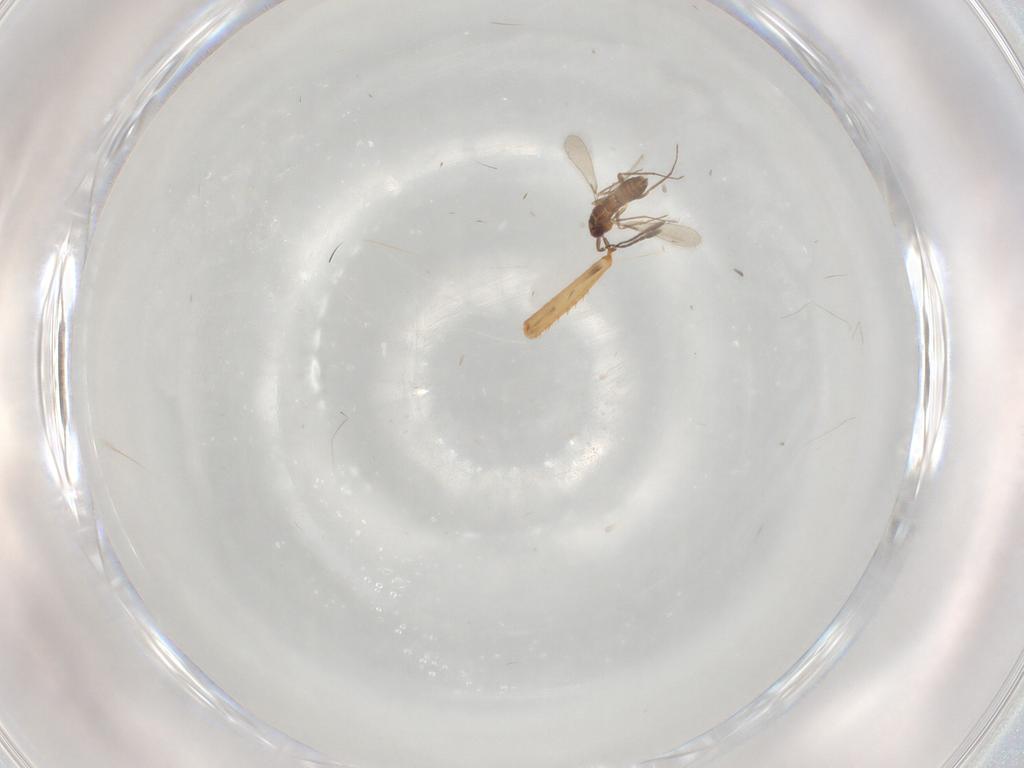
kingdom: Animalia
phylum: Arthropoda
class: Insecta
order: Hymenoptera
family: Mymaridae
